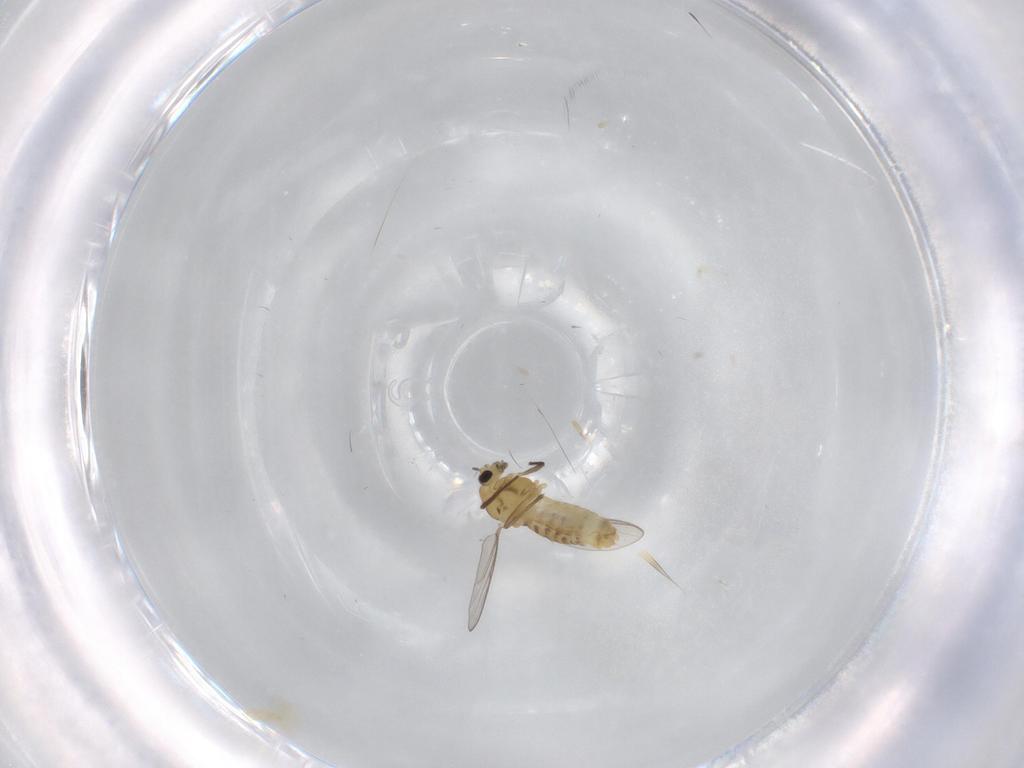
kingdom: Animalia
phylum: Arthropoda
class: Insecta
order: Diptera
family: Chironomidae
